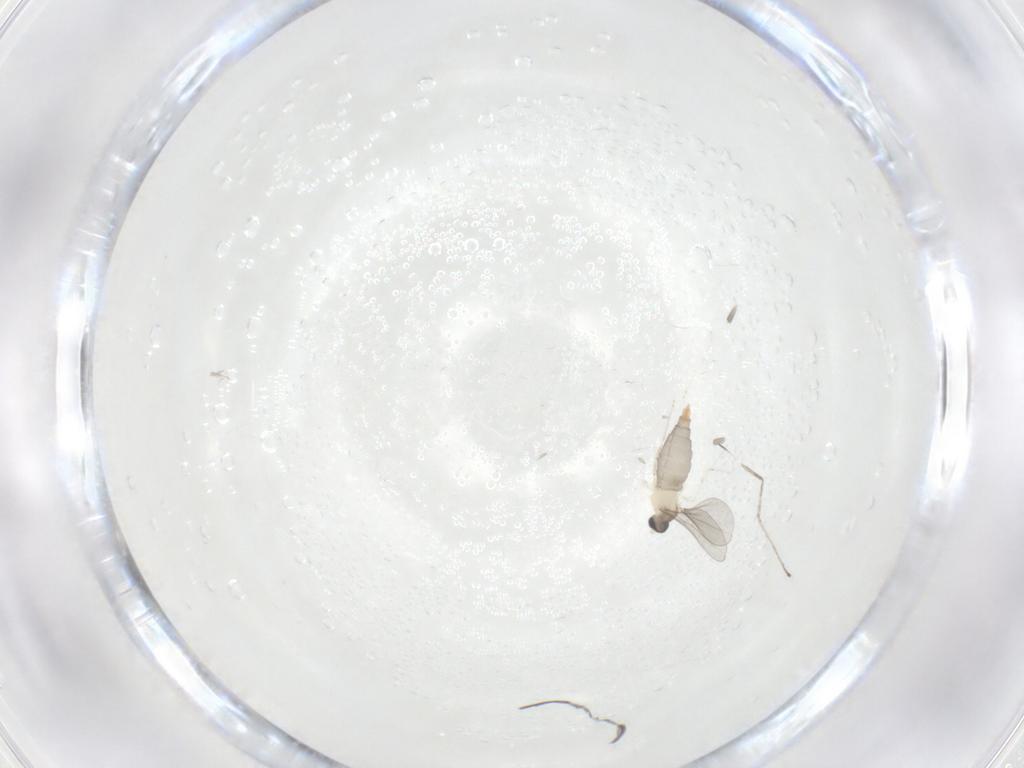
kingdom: Animalia
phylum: Arthropoda
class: Insecta
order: Diptera
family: Cecidomyiidae
